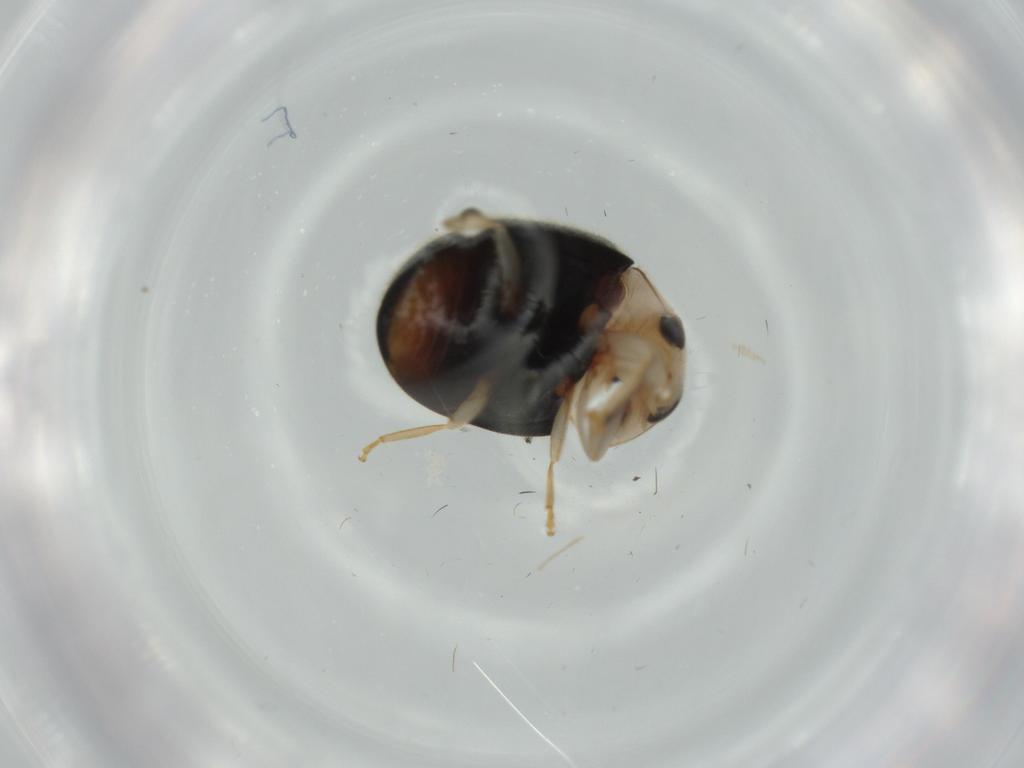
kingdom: Animalia
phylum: Arthropoda
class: Insecta
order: Coleoptera
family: Coccinellidae
